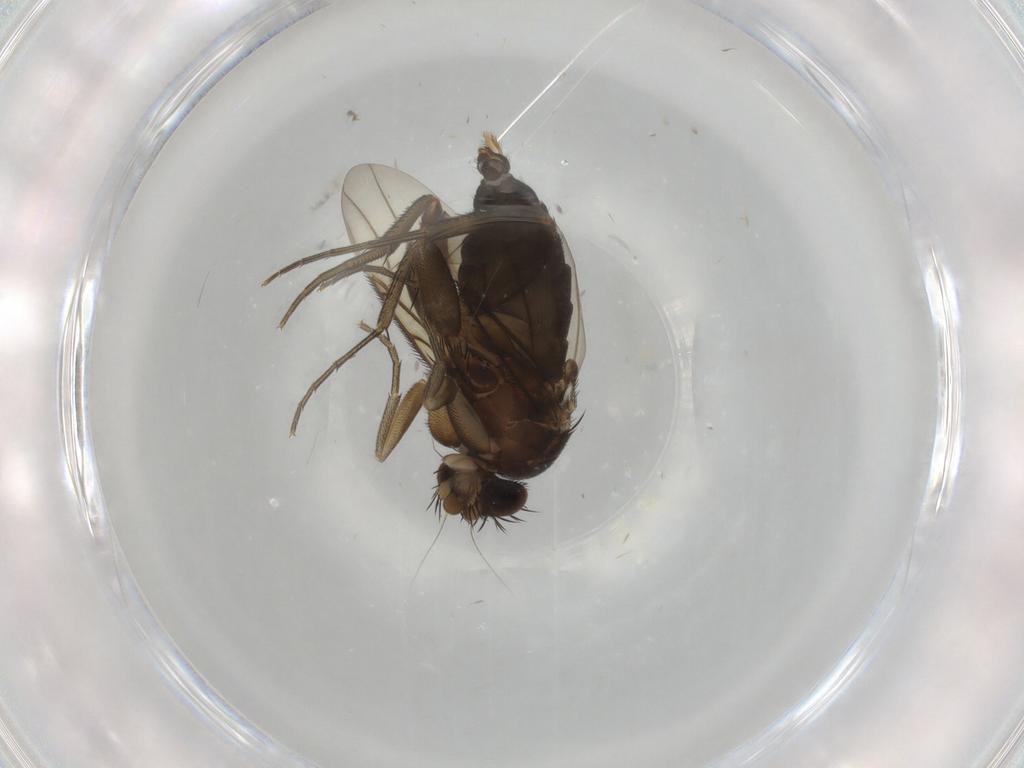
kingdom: Animalia
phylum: Arthropoda
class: Insecta
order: Diptera
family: Phoridae
